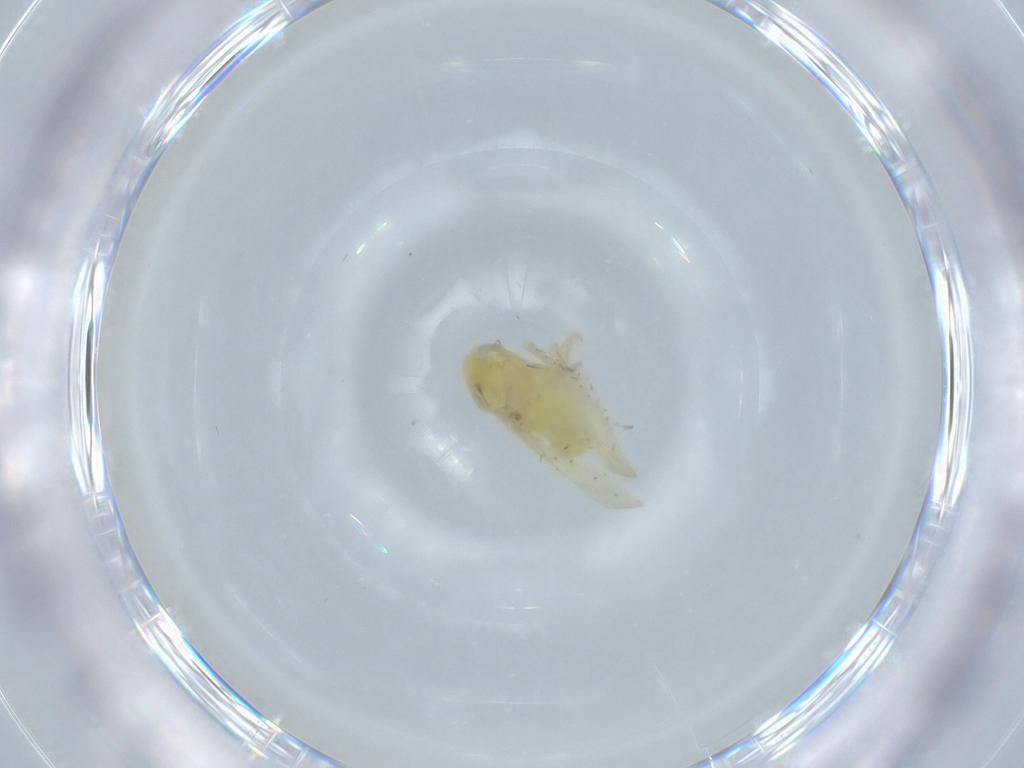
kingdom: Animalia
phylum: Arthropoda
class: Insecta
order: Hemiptera
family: Cicadellidae
